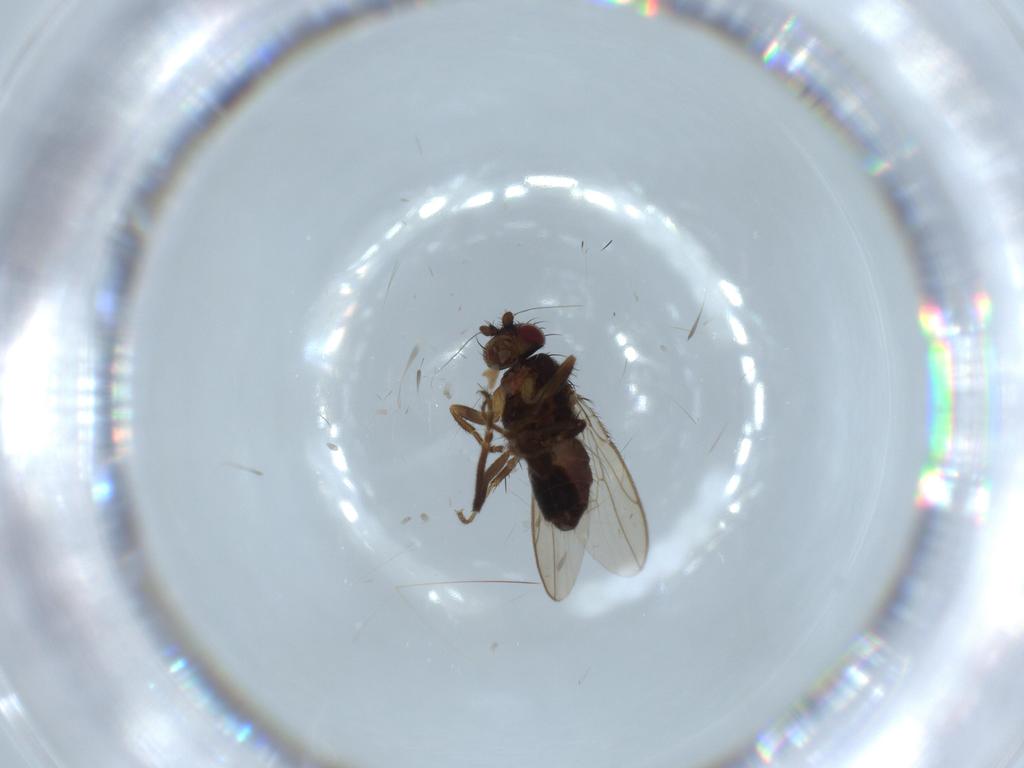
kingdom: Animalia
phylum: Arthropoda
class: Insecta
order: Diptera
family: Sphaeroceridae
